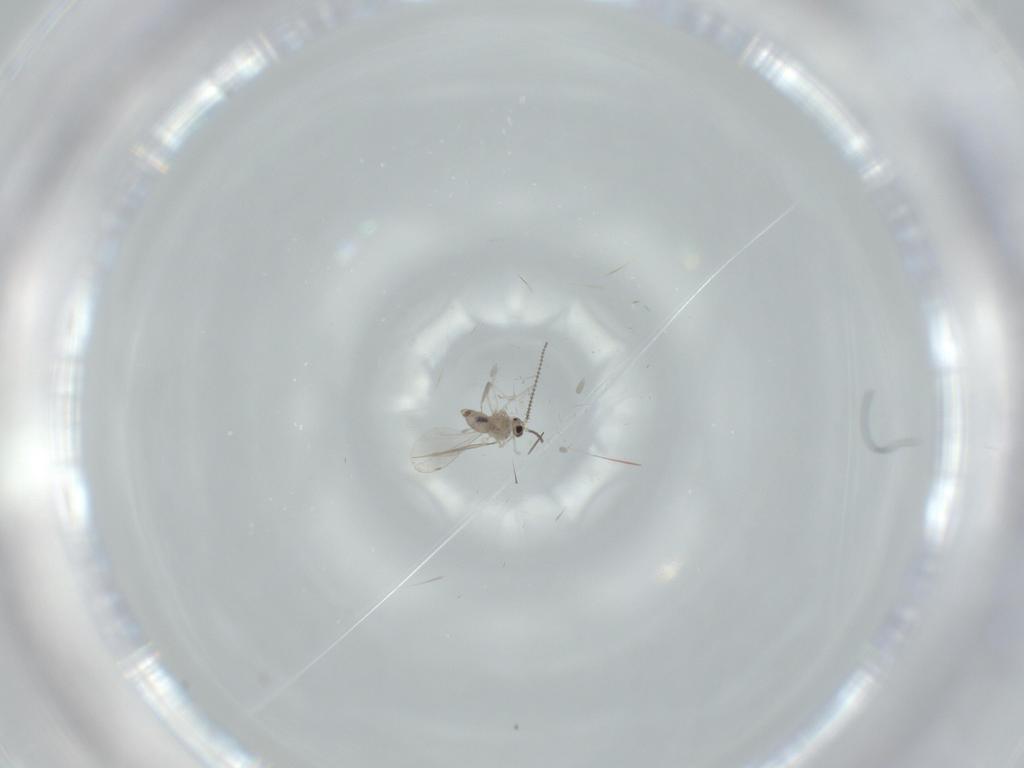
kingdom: Animalia
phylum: Arthropoda
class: Insecta
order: Diptera
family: Cecidomyiidae
